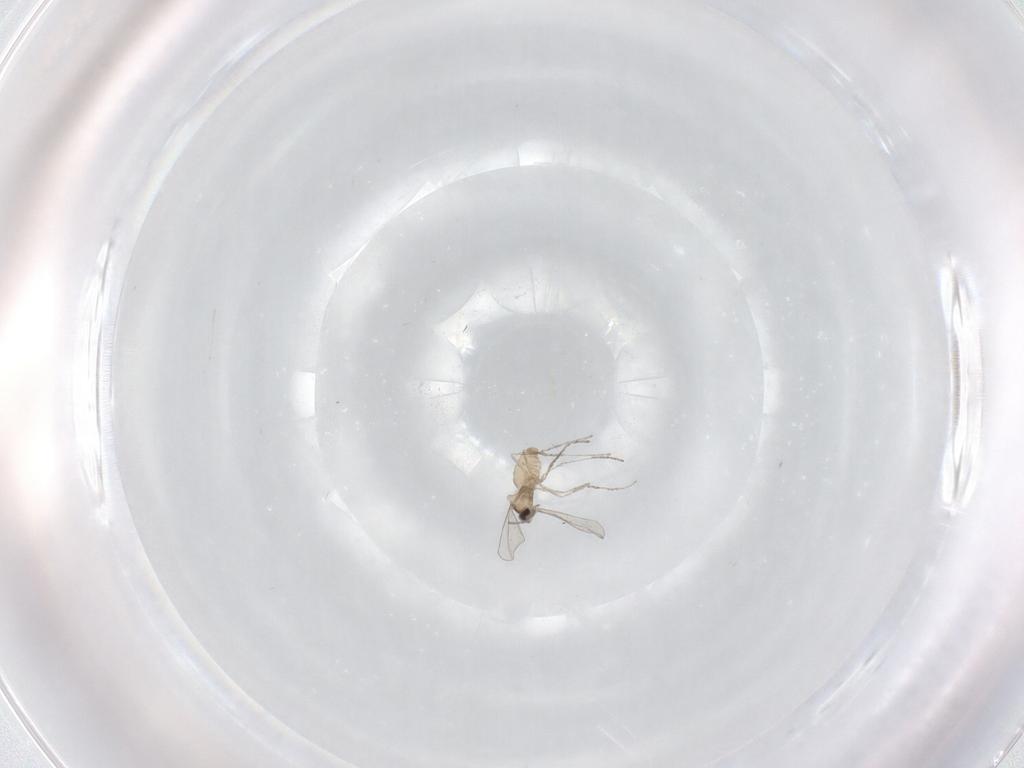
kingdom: Animalia
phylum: Arthropoda
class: Insecta
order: Diptera
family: Cecidomyiidae
